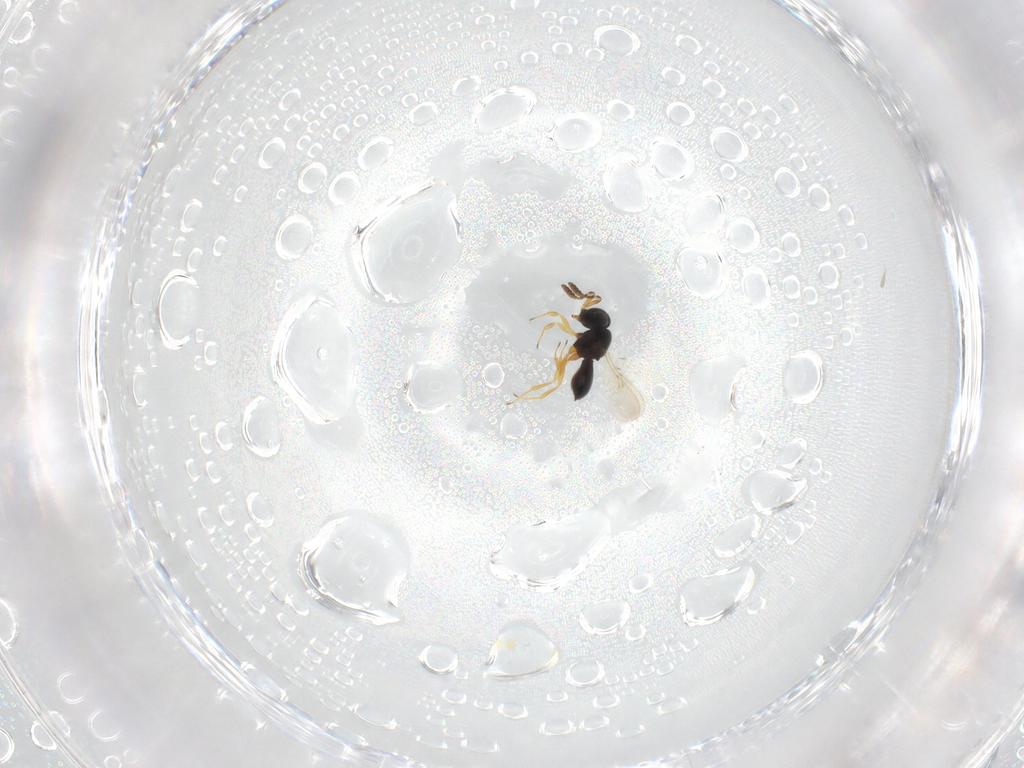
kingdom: Animalia
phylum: Arthropoda
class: Insecta
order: Hymenoptera
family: Scelionidae
